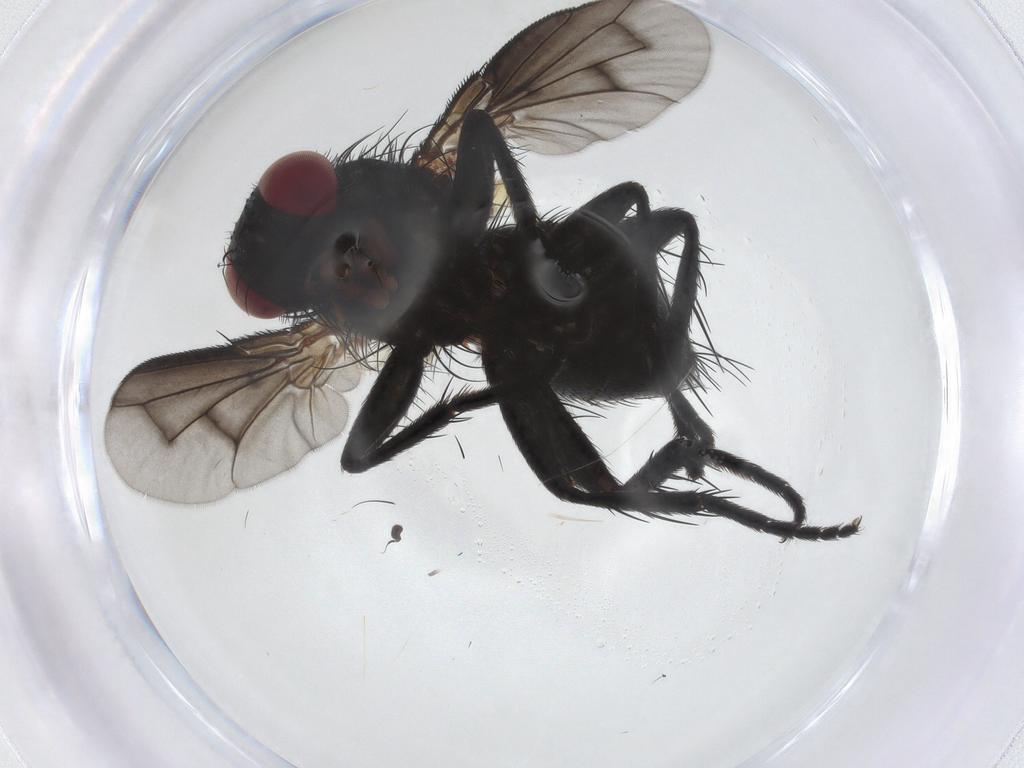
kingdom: Animalia
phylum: Arthropoda
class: Insecta
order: Diptera
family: Tachinidae
